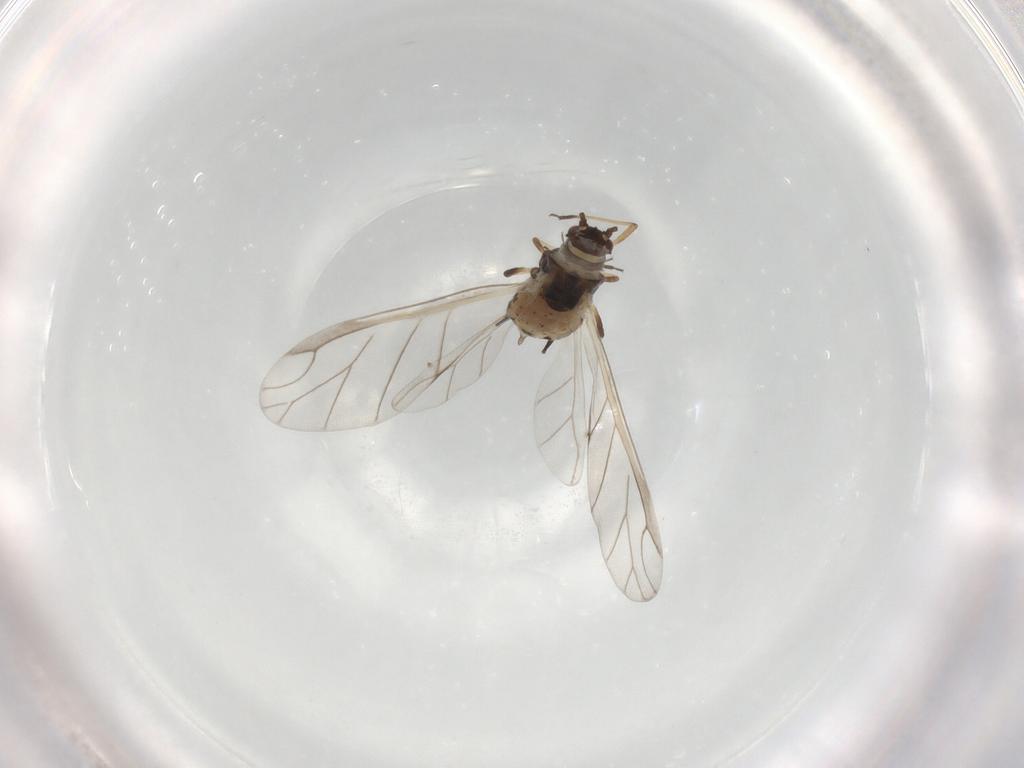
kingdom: Animalia
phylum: Arthropoda
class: Insecta
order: Hemiptera
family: Aphididae
